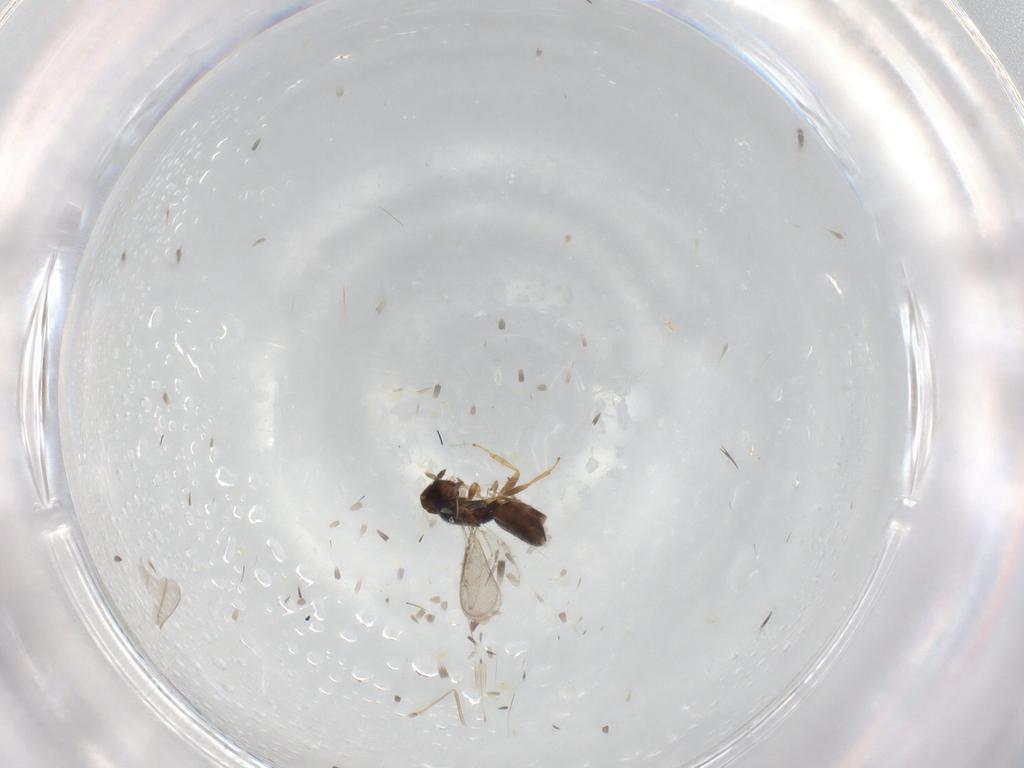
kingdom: Animalia
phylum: Arthropoda
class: Insecta
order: Hymenoptera
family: Eulophidae
